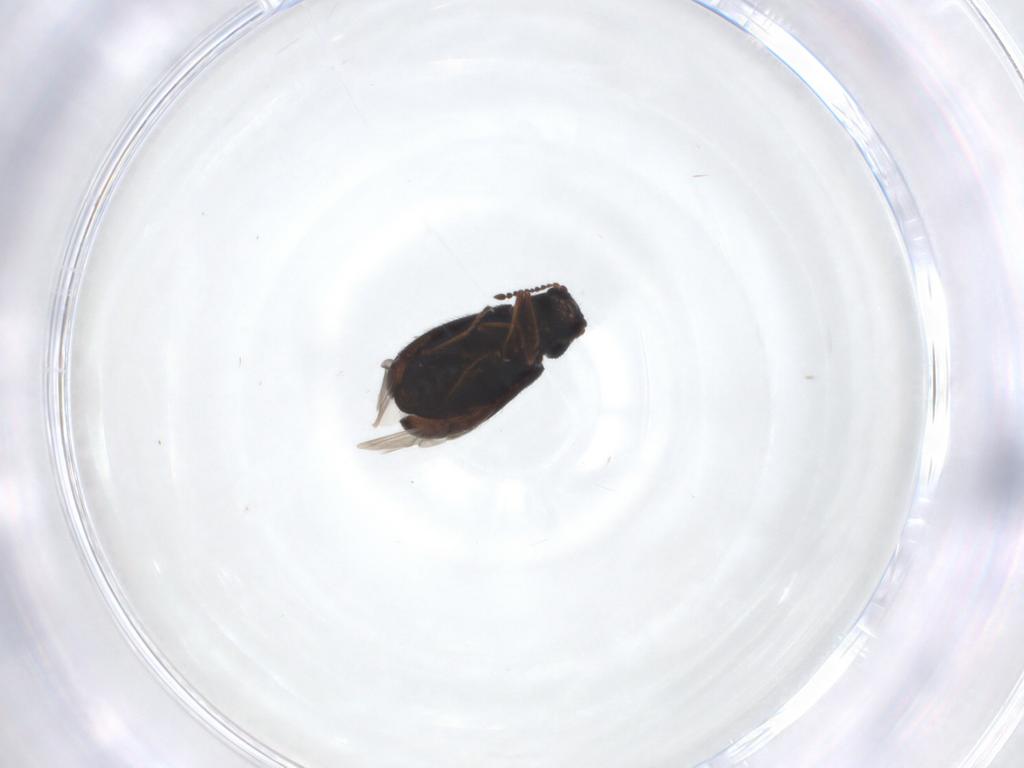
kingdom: Animalia
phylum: Arthropoda
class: Insecta
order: Coleoptera
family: Melyridae
